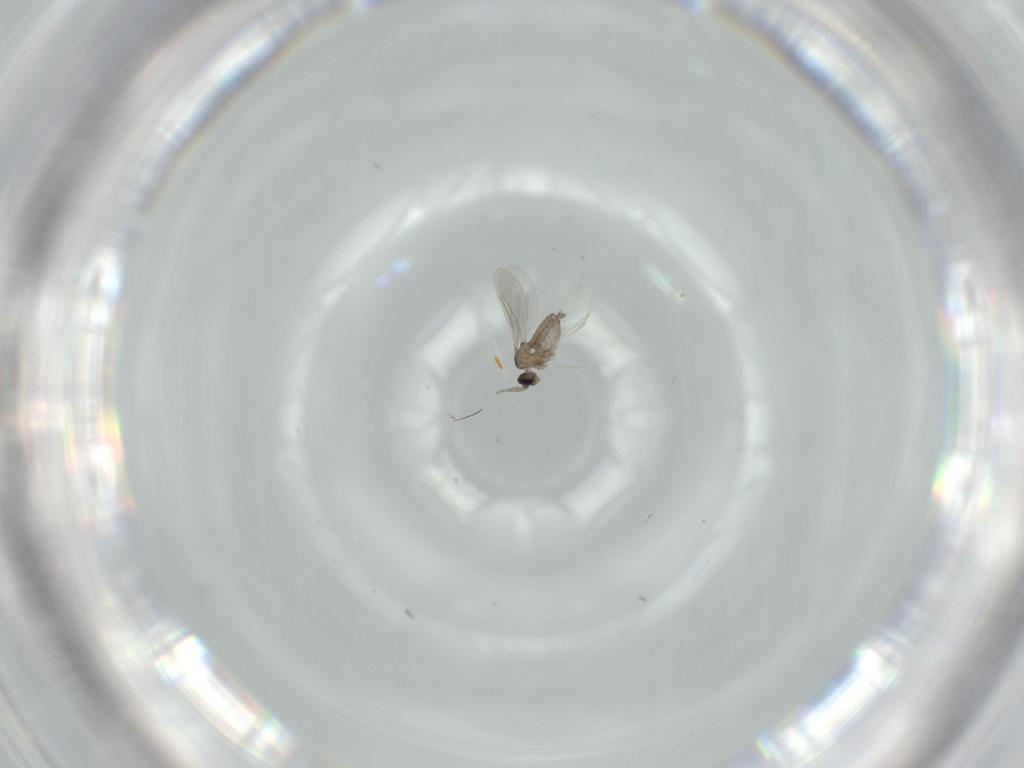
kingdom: Animalia
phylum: Arthropoda
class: Insecta
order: Diptera
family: Cecidomyiidae
